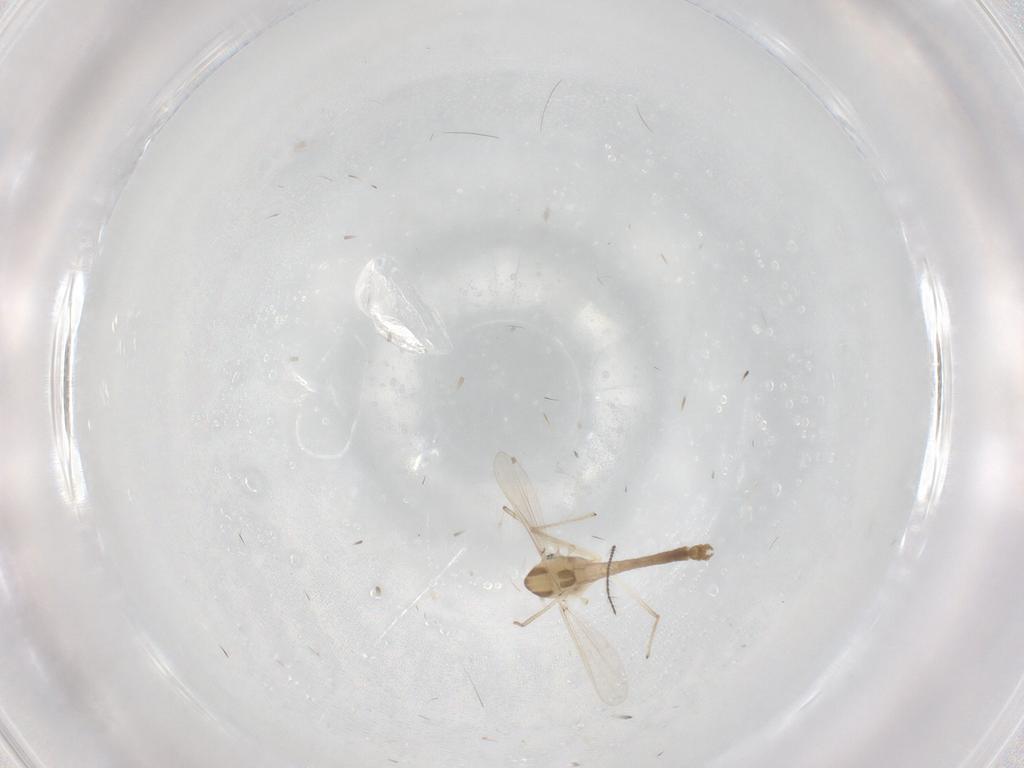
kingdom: Animalia
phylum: Arthropoda
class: Insecta
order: Diptera
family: Chironomidae
